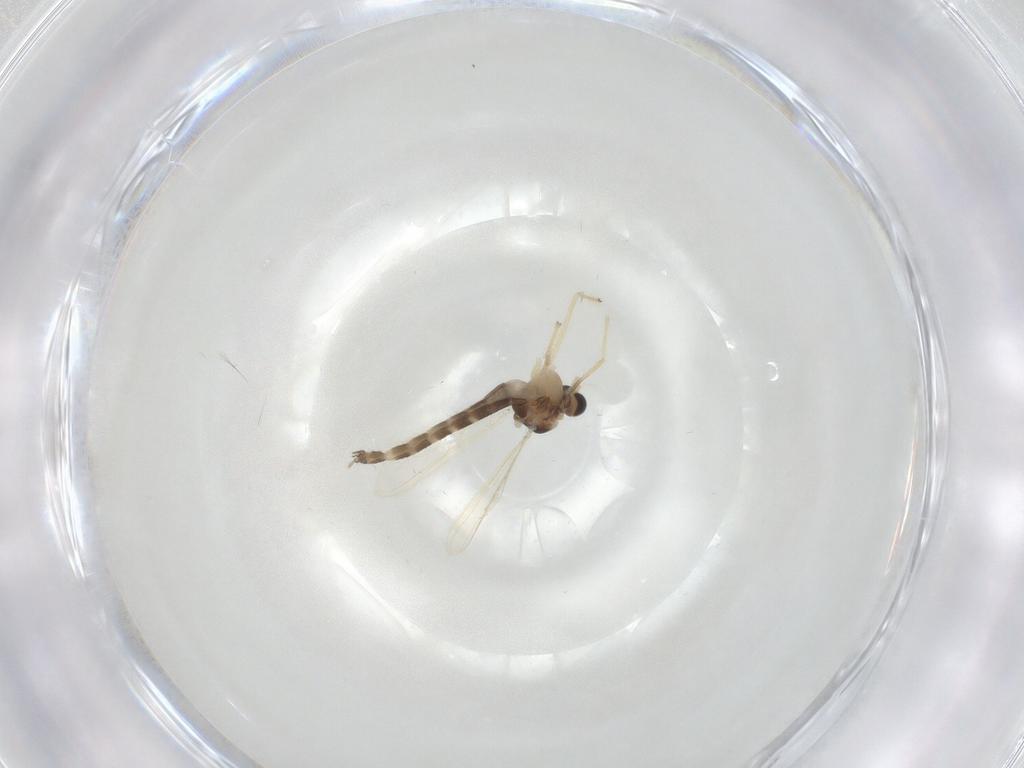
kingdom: Animalia
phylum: Arthropoda
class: Insecta
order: Diptera
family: Chironomidae
